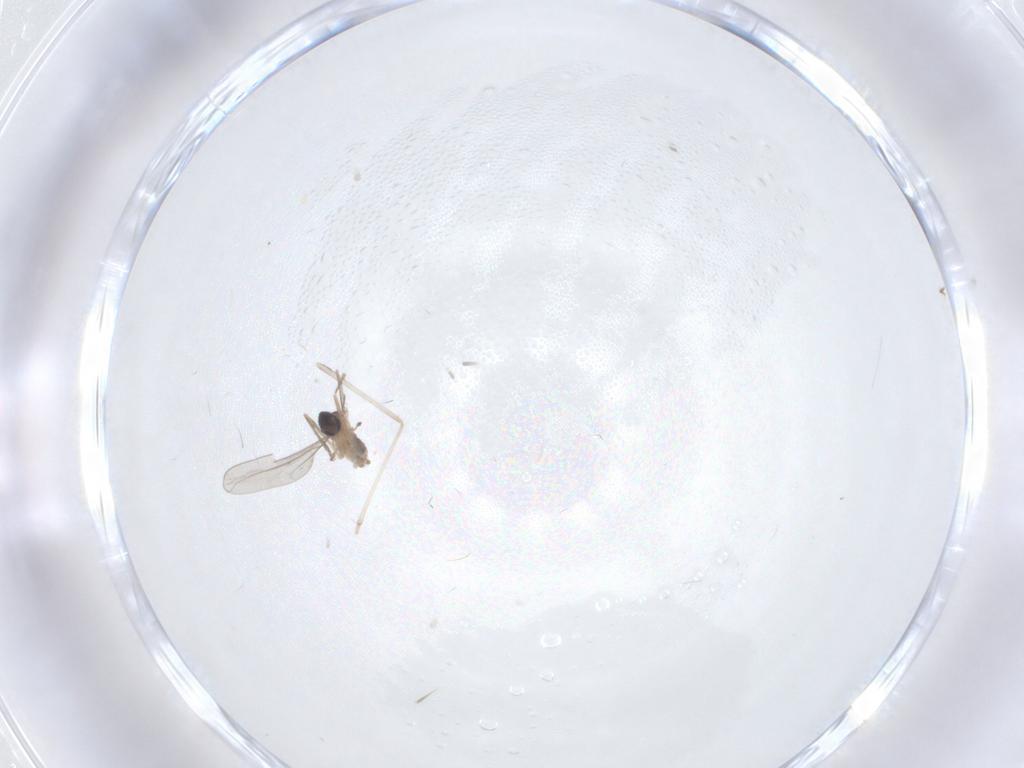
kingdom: Animalia
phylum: Arthropoda
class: Insecta
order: Diptera
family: Cecidomyiidae
